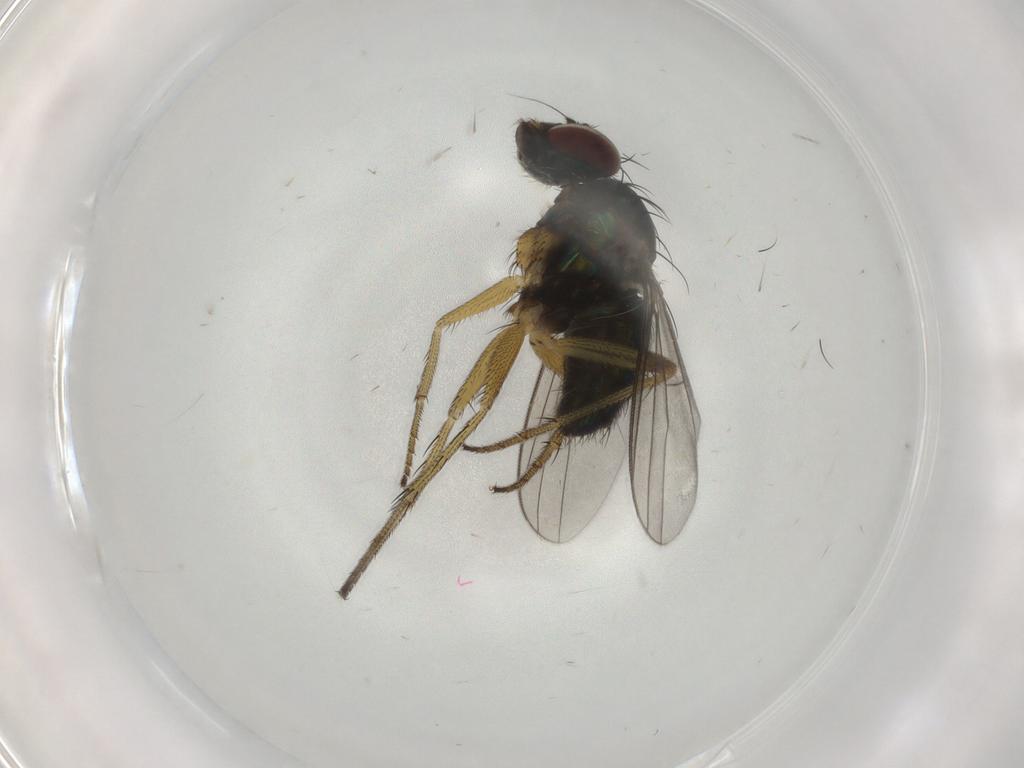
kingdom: Animalia
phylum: Arthropoda
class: Insecta
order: Diptera
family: Dolichopodidae
